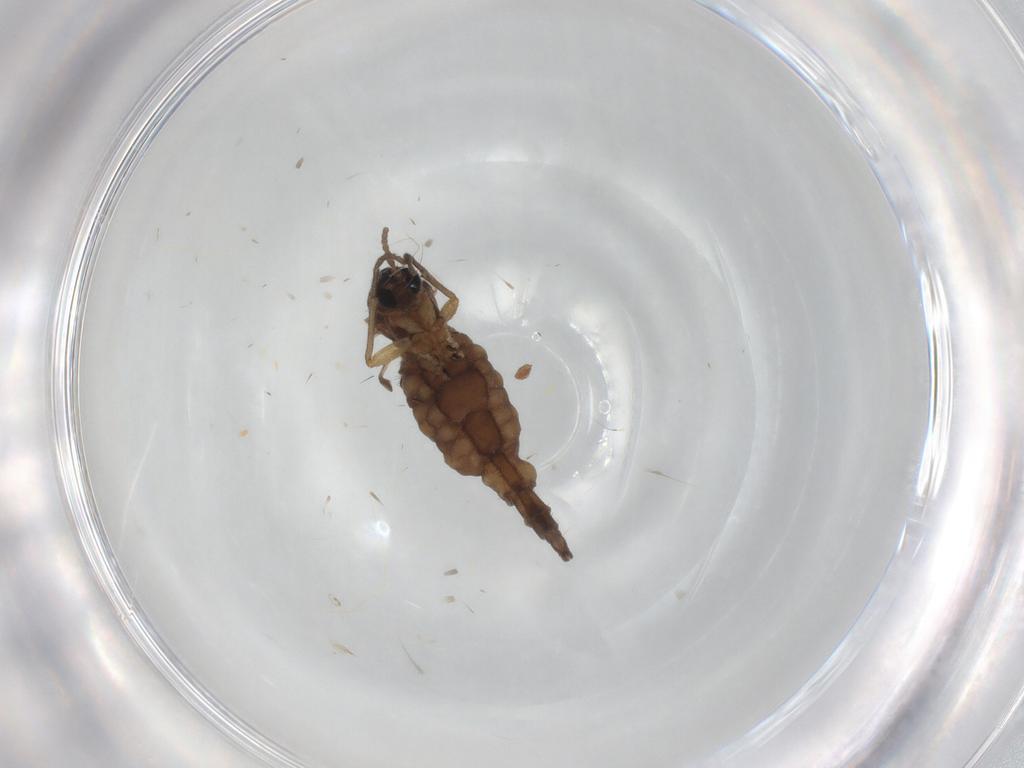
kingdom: Animalia
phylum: Arthropoda
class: Insecta
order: Diptera
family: Sciaridae
